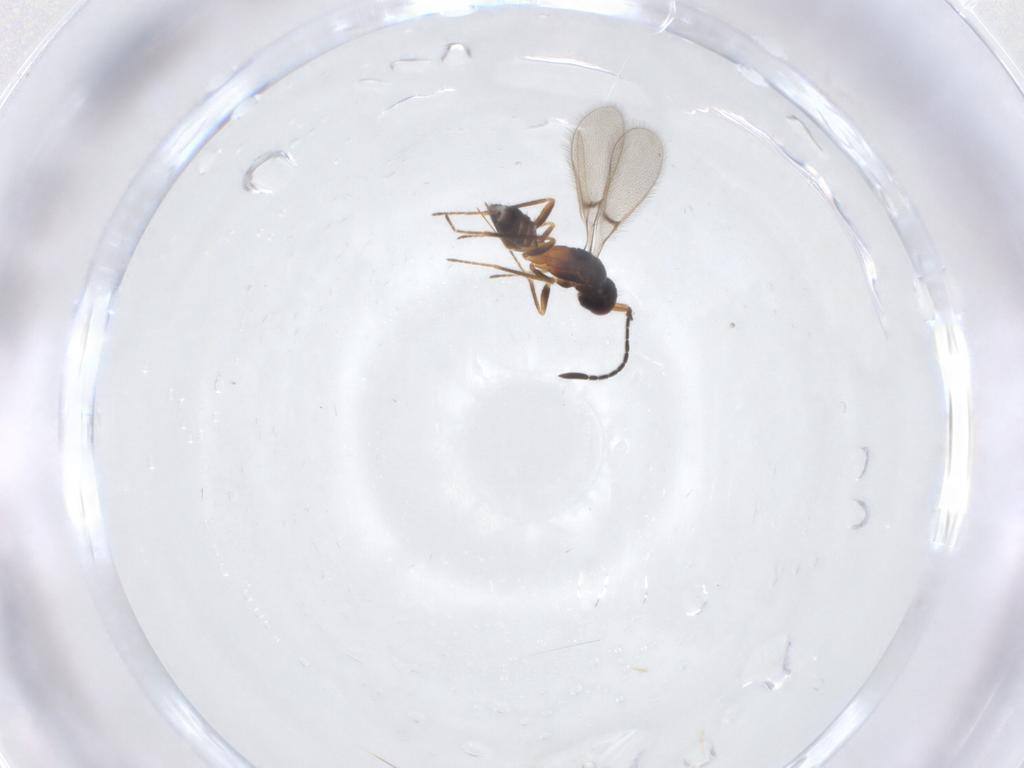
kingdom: Animalia
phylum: Arthropoda
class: Insecta
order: Hymenoptera
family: Mymaridae
